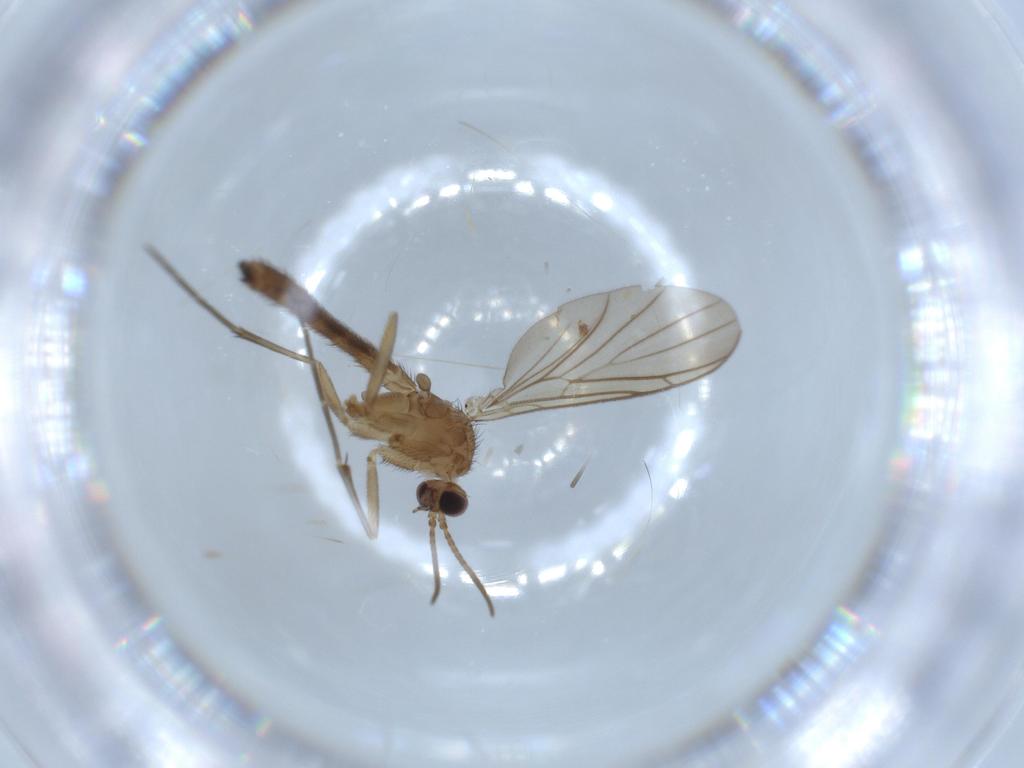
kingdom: Animalia
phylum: Arthropoda
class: Insecta
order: Diptera
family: Keroplatidae
